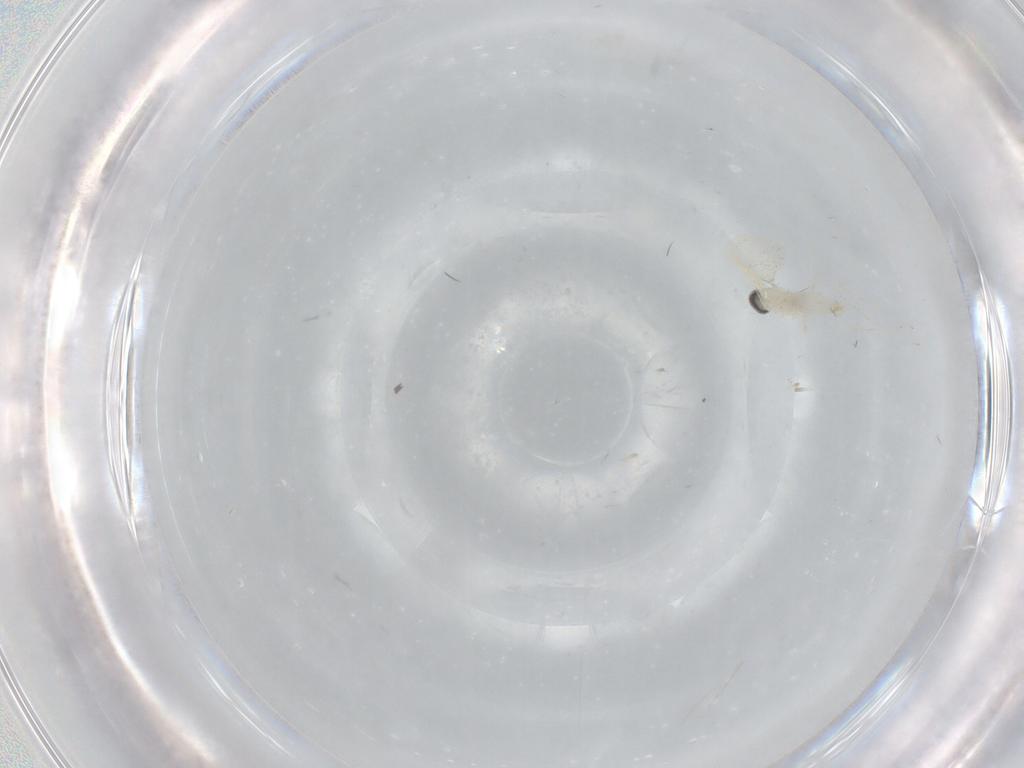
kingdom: Animalia
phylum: Arthropoda
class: Insecta
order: Diptera
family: Cecidomyiidae
